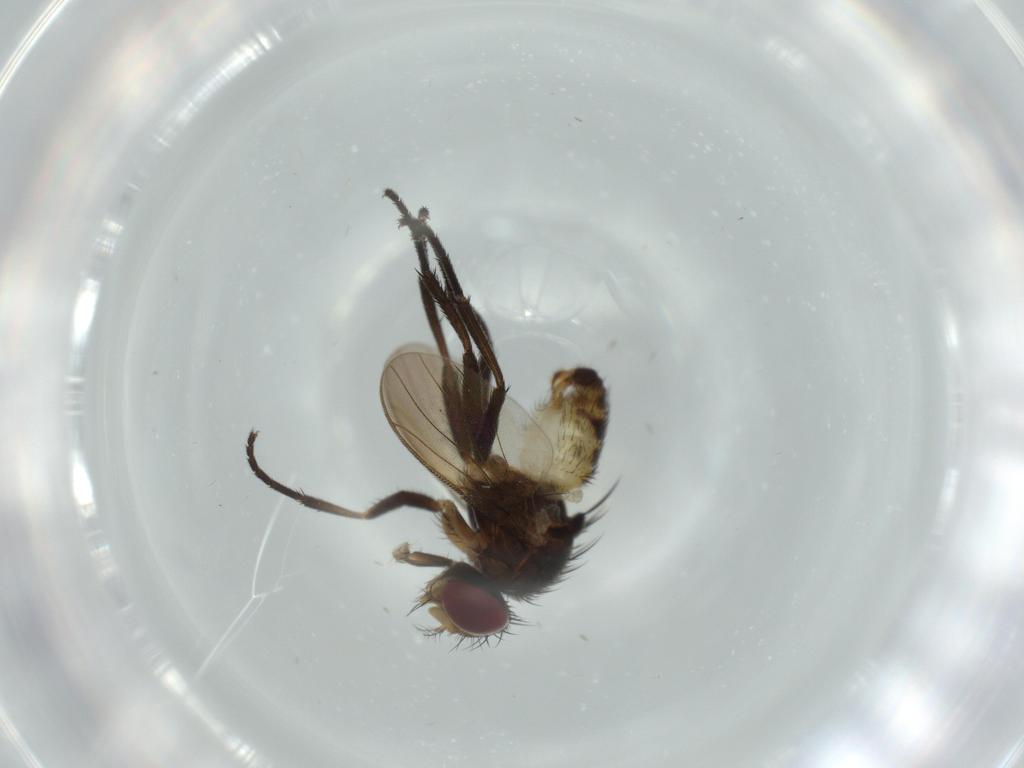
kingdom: Animalia
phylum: Arthropoda
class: Insecta
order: Diptera
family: Anthomyiidae
